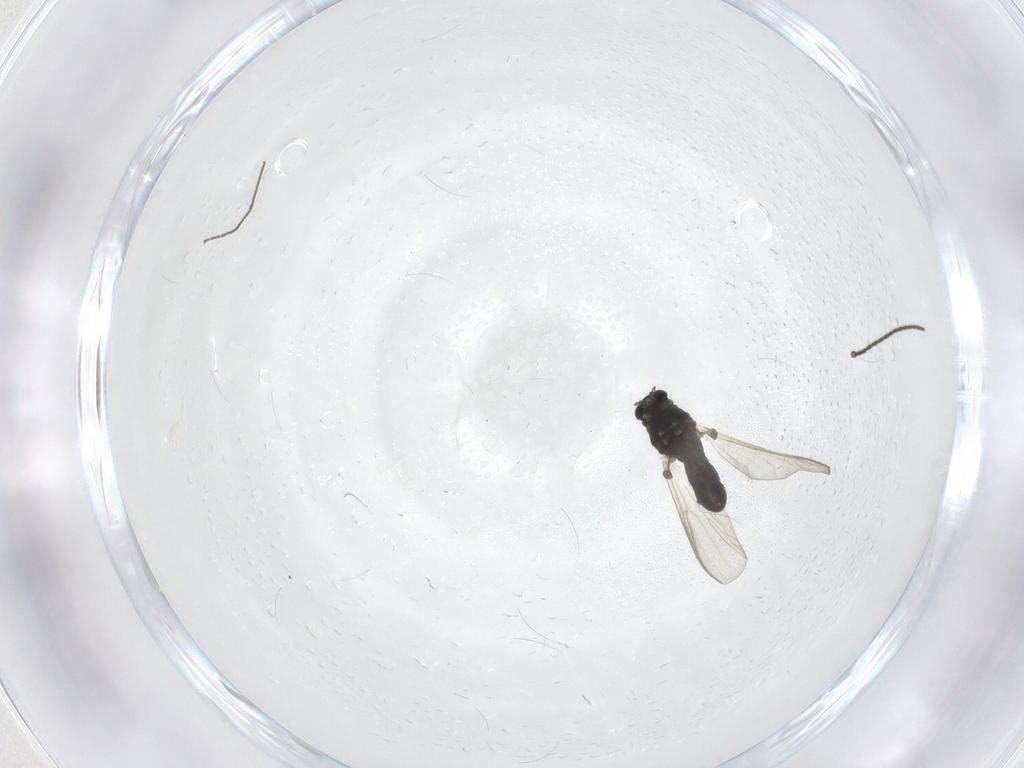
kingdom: Animalia
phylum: Arthropoda
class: Insecta
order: Diptera
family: Sciaridae
